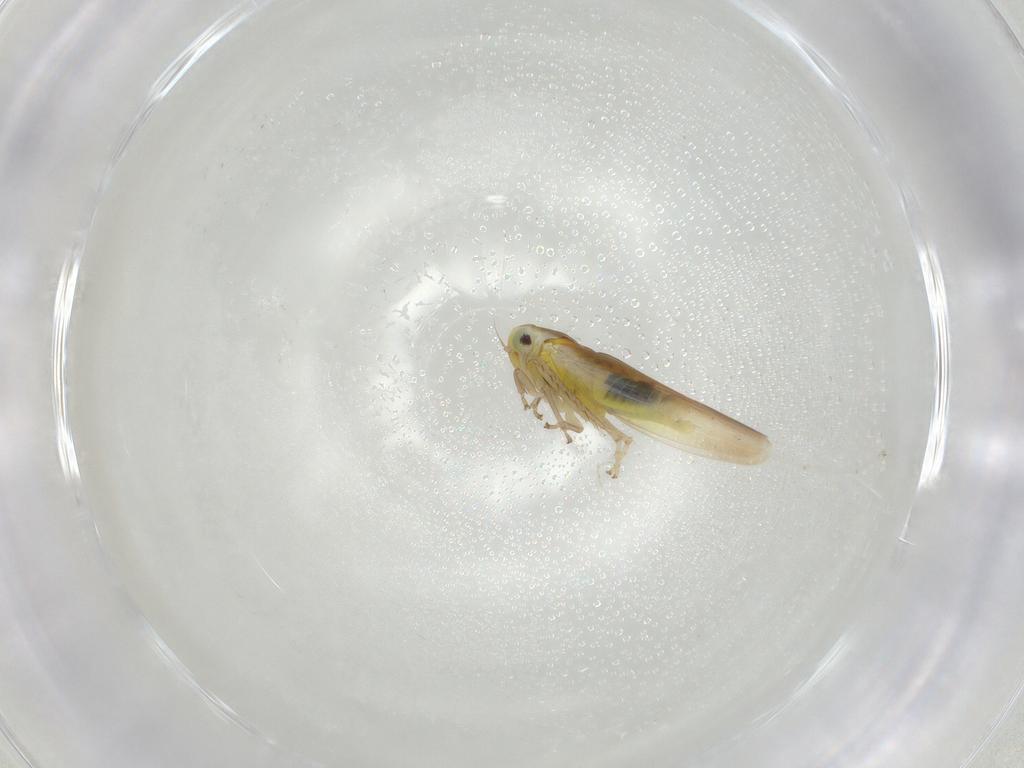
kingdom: Animalia
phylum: Arthropoda
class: Insecta
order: Hemiptera
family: Cicadellidae
